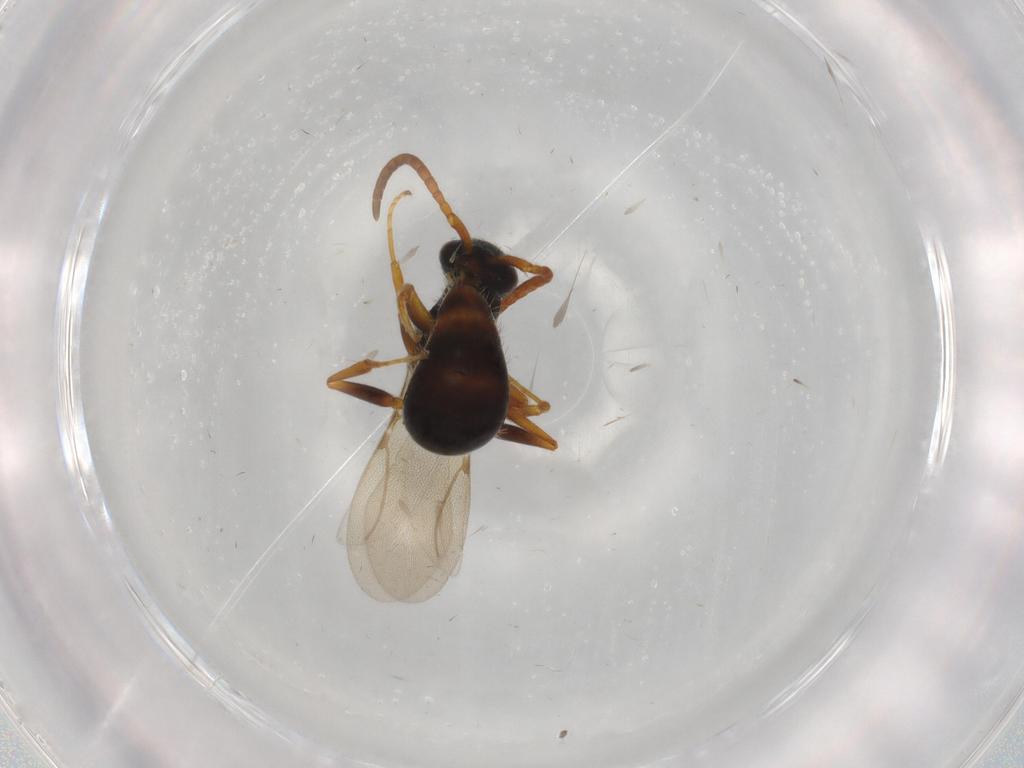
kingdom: Animalia
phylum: Arthropoda
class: Insecta
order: Hymenoptera
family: Bethylidae
